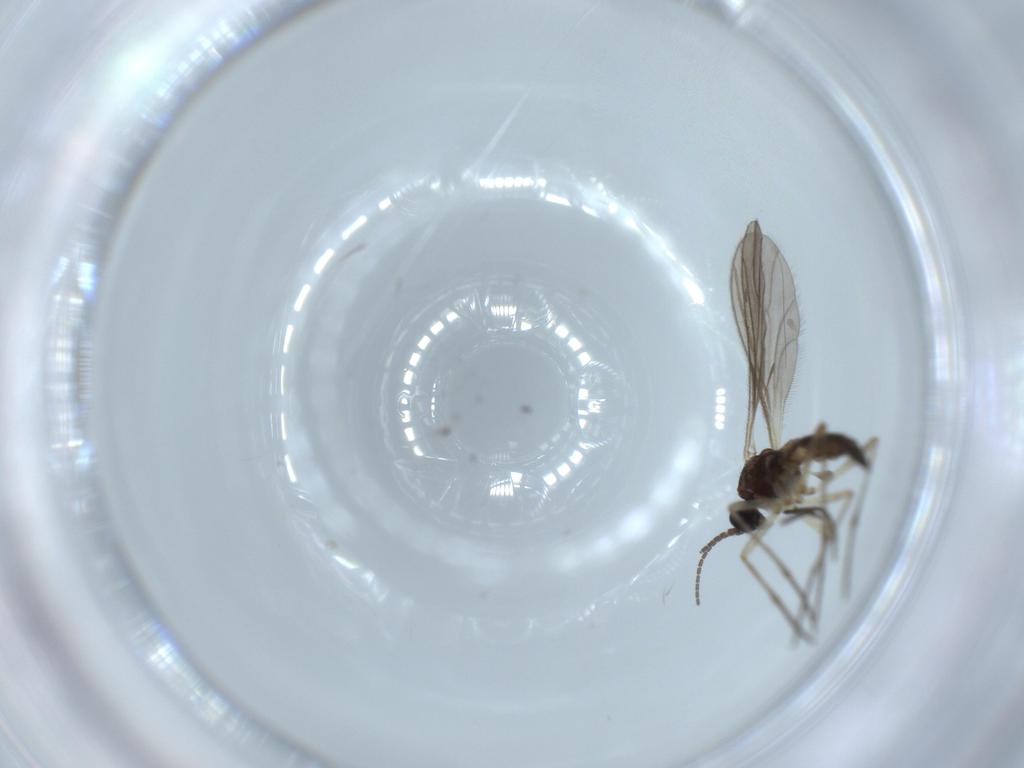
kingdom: Animalia
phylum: Arthropoda
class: Insecta
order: Diptera
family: Sciaridae
